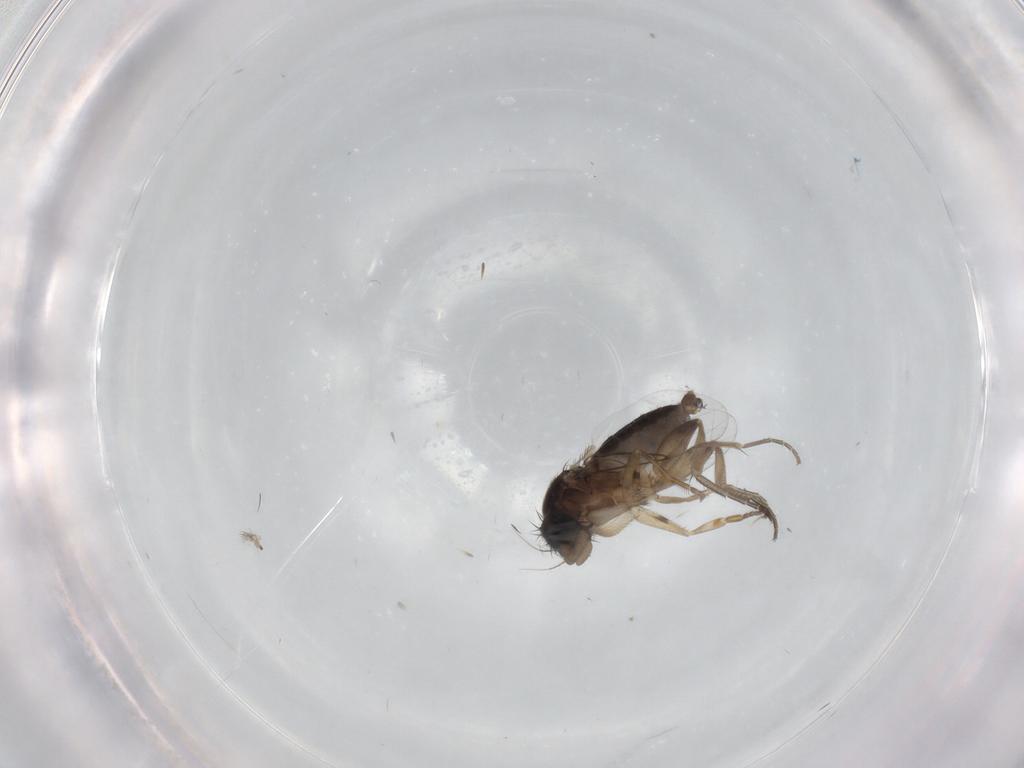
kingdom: Animalia
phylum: Arthropoda
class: Insecta
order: Diptera
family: Phoridae
